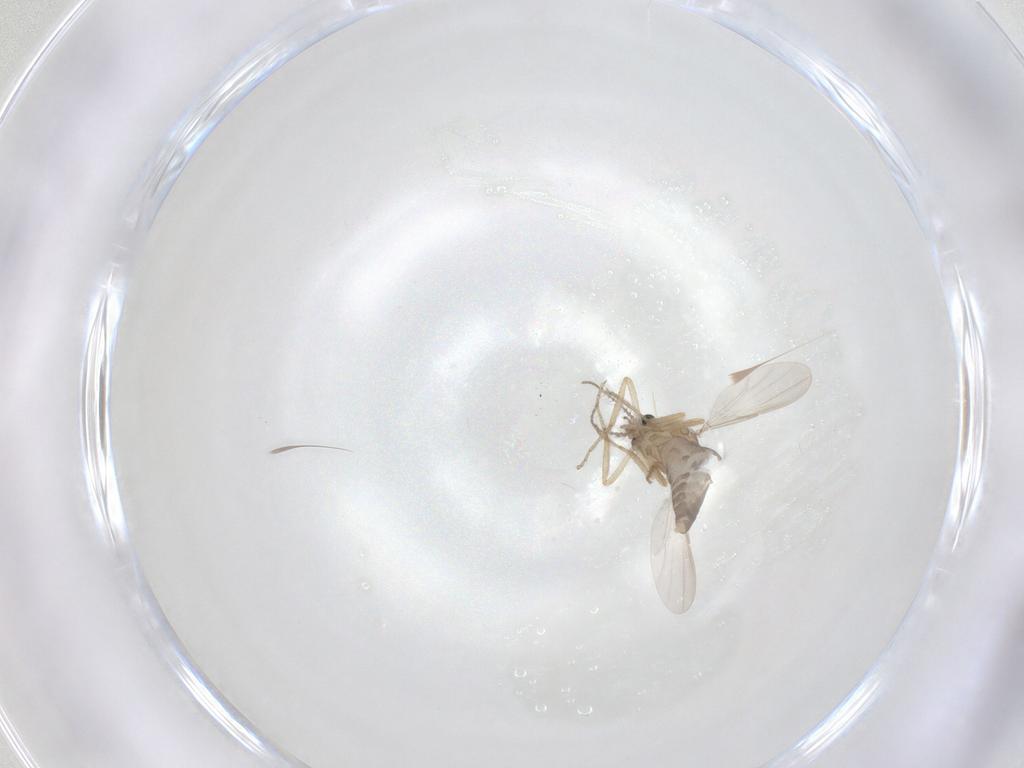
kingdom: Animalia
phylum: Arthropoda
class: Insecta
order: Diptera
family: Ceratopogonidae
